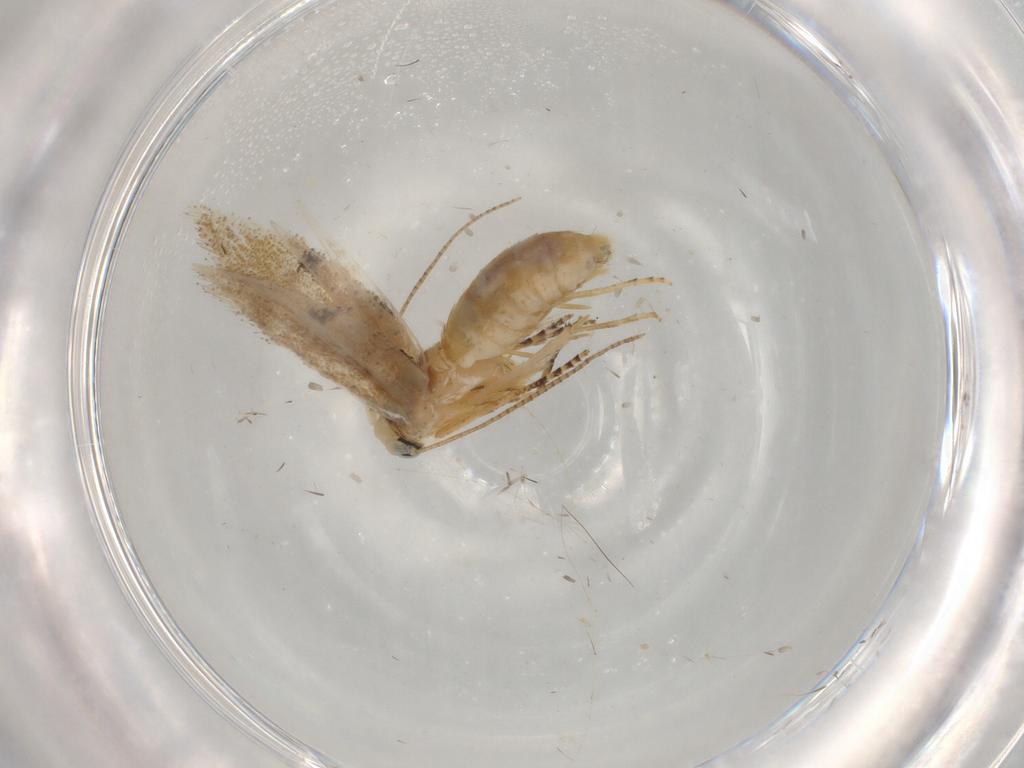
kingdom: Animalia
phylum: Arthropoda
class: Insecta
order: Lepidoptera
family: Bucculatricidae
